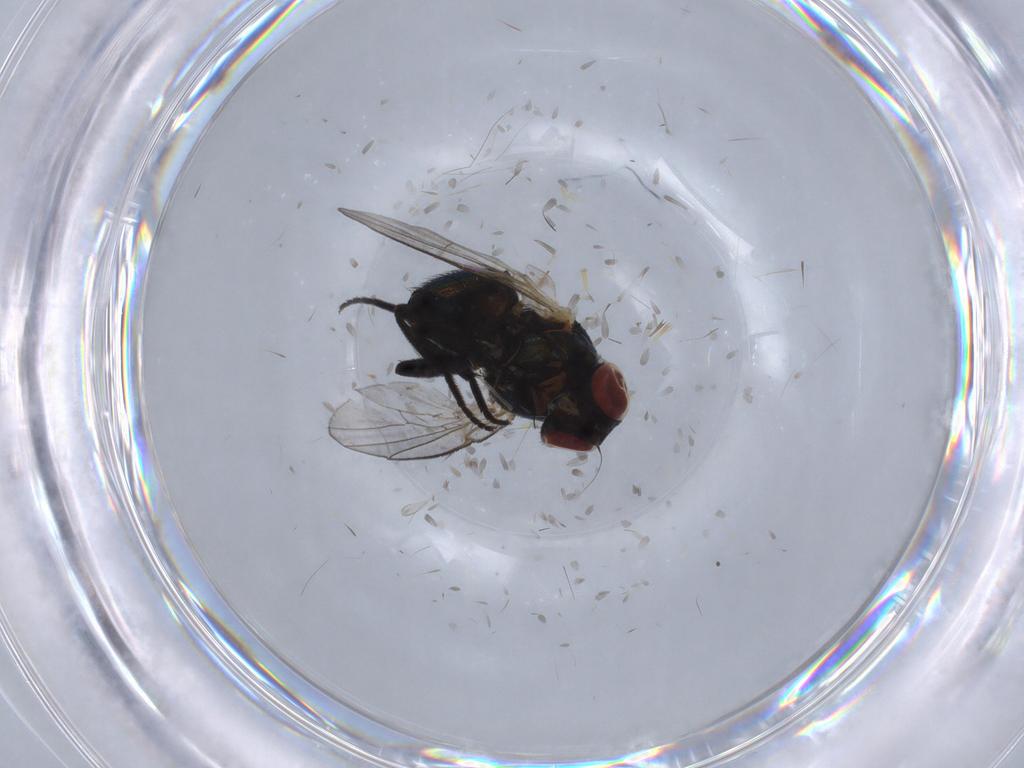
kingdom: Animalia
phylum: Arthropoda
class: Insecta
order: Diptera
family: Agromyzidae
